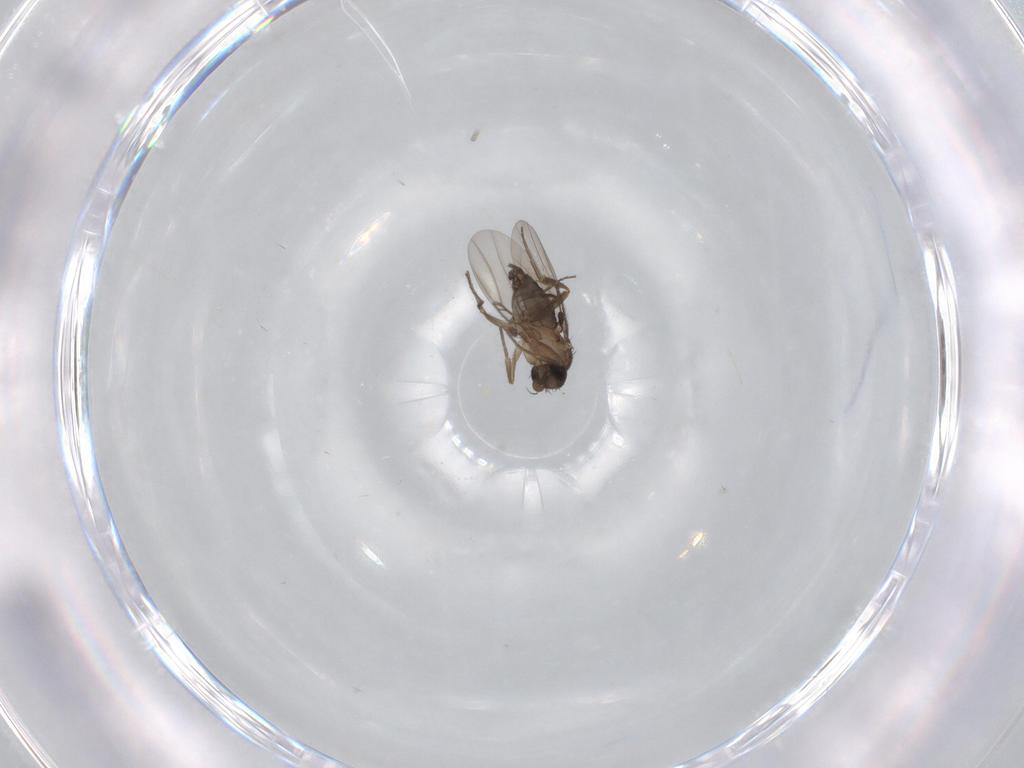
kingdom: Animalia
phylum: Arthropoda
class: Insecta
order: Diptera
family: Phoridae
